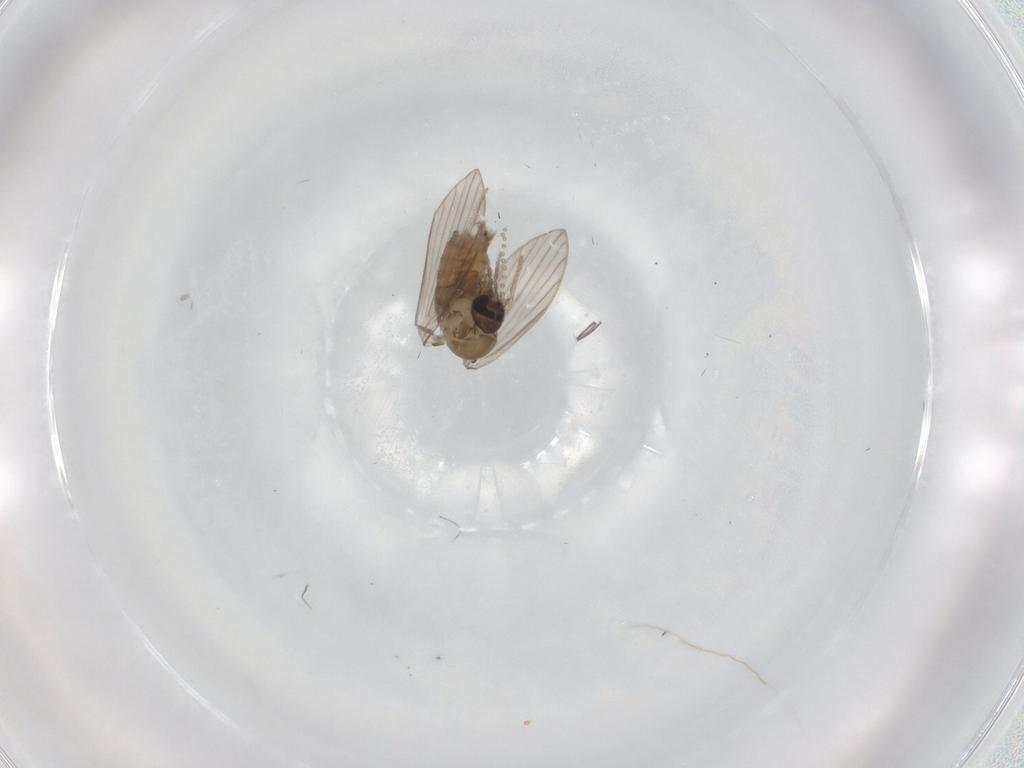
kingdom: Animalia
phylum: Arthropoda
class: Insecta
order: Diptera
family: Psychodidae
